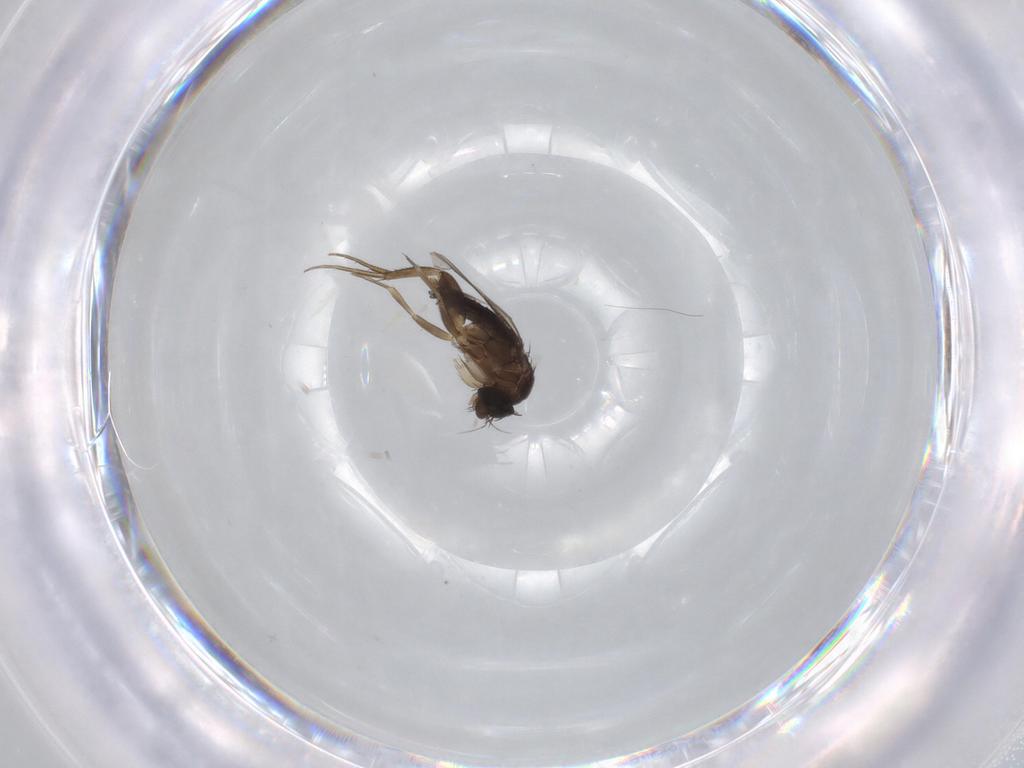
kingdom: Animalia
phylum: Arthropoda
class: Insecta
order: Diptera
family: Phoridae
